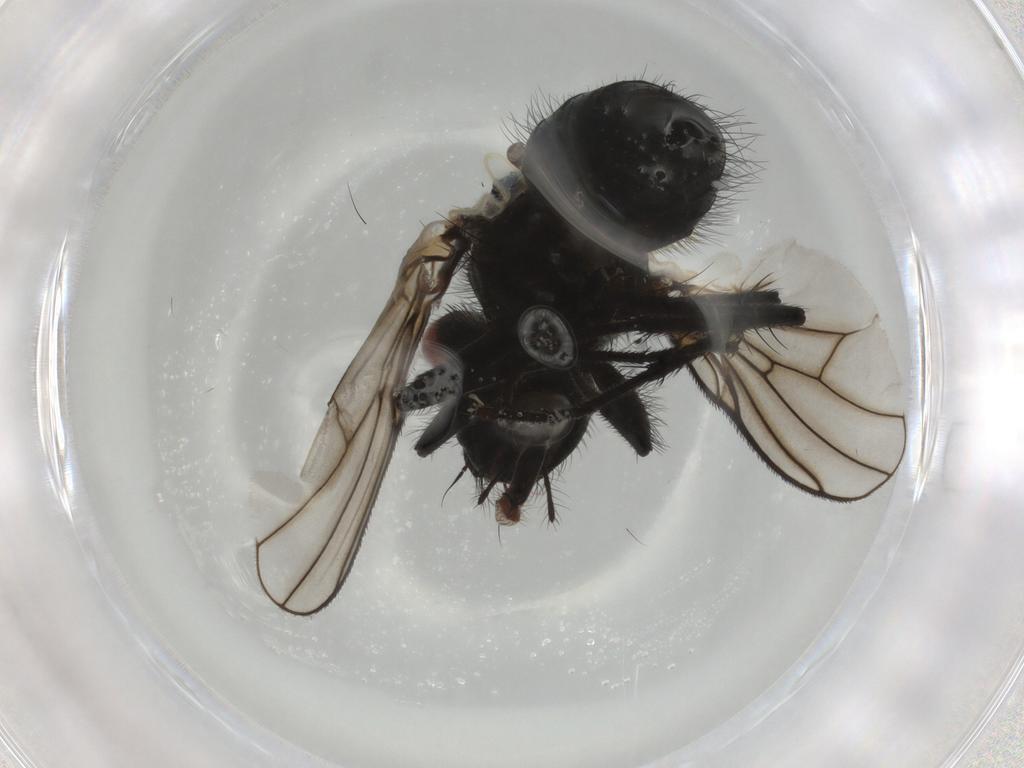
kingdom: Animalia
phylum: Arthropoda
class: Insecta
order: Diptera
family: Muscidae
